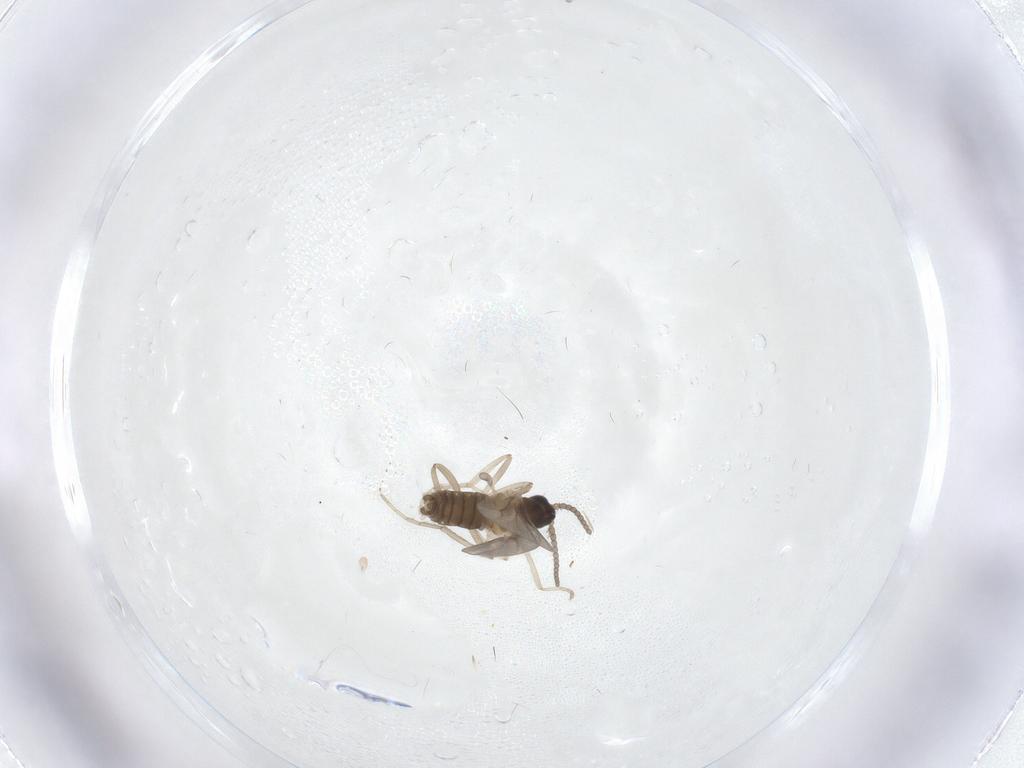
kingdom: Animalia
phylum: Arthropoda
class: Insecta
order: Diptera
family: Cecidomyiidae
